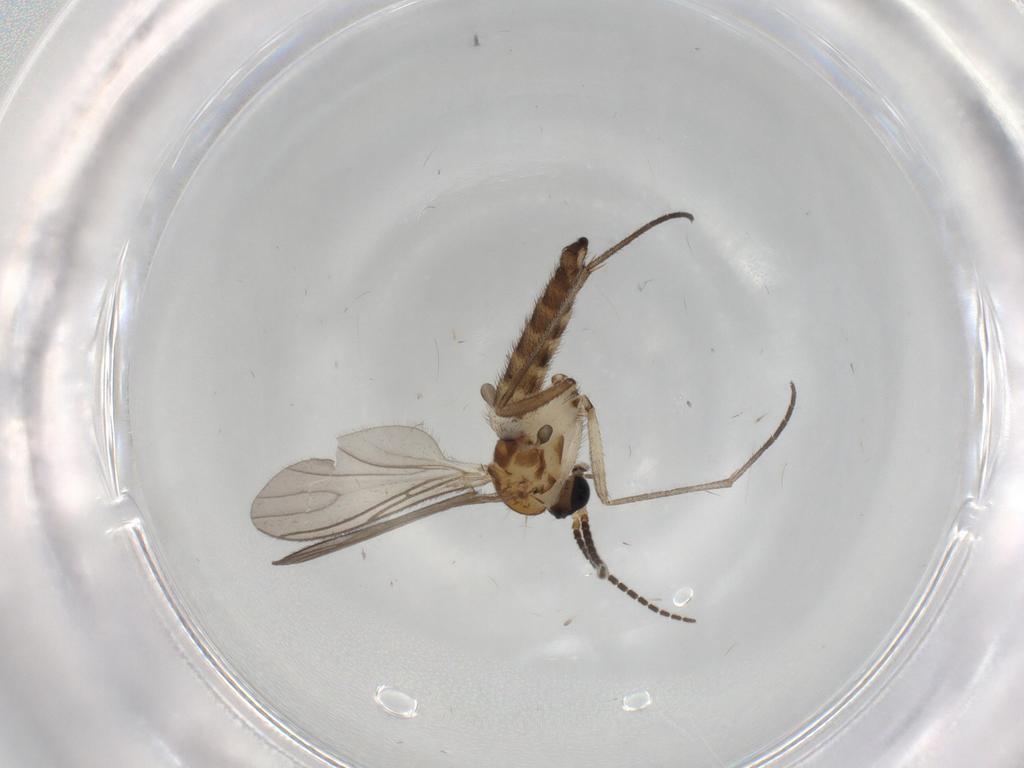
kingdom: Animalia
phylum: Arthropoda
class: Insecta
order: Diptera
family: Sciaridae
